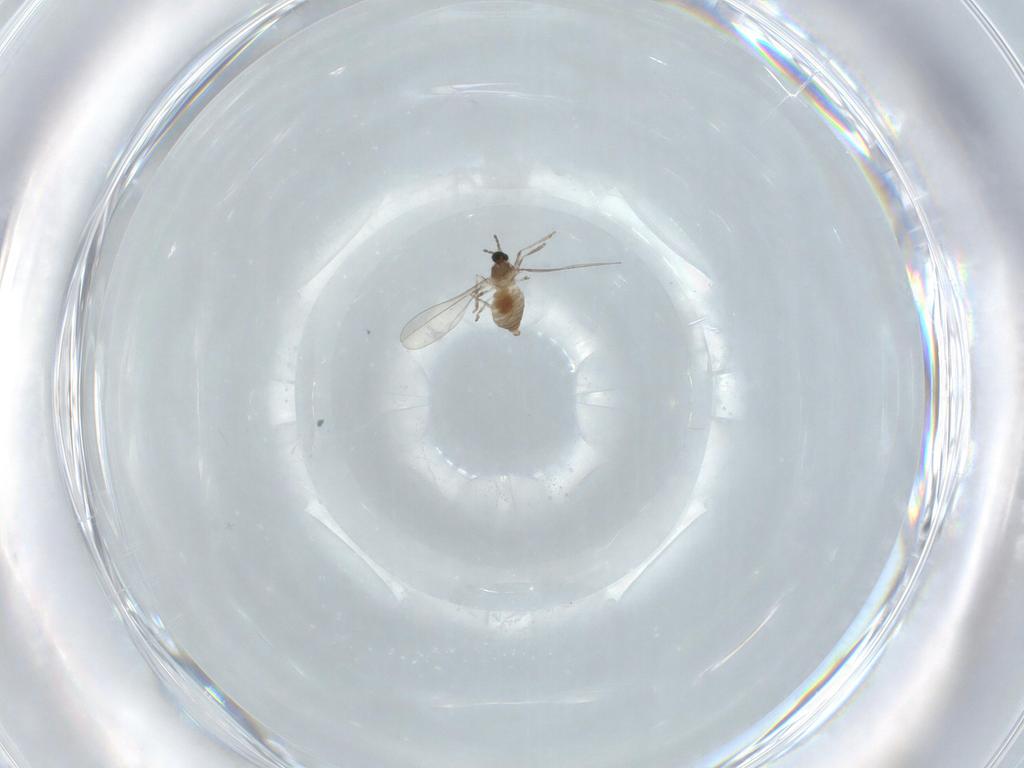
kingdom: Animalia
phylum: Arthropoda
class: Insecta
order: Diptera
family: Cecidomyiidae
